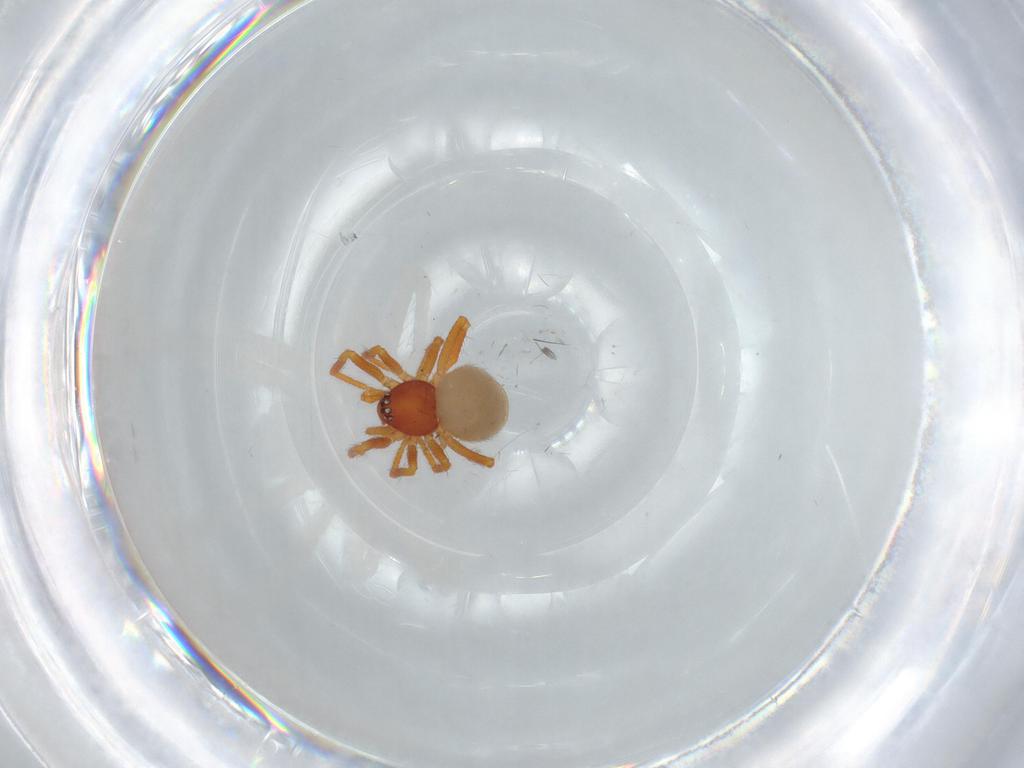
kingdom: Animalia
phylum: Arthropoda
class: Arachnida
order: Araneae
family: Theridiidae
